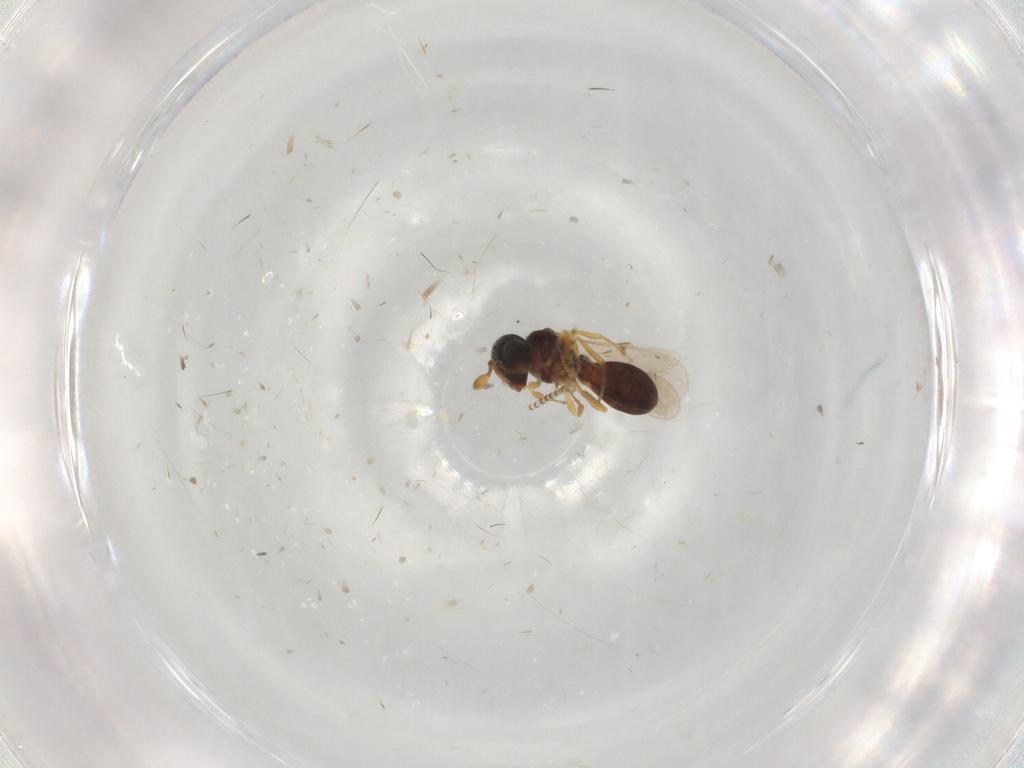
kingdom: Animalia
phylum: Arthropoda
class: Insecta
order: Hymenoptera
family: Scelionidae
